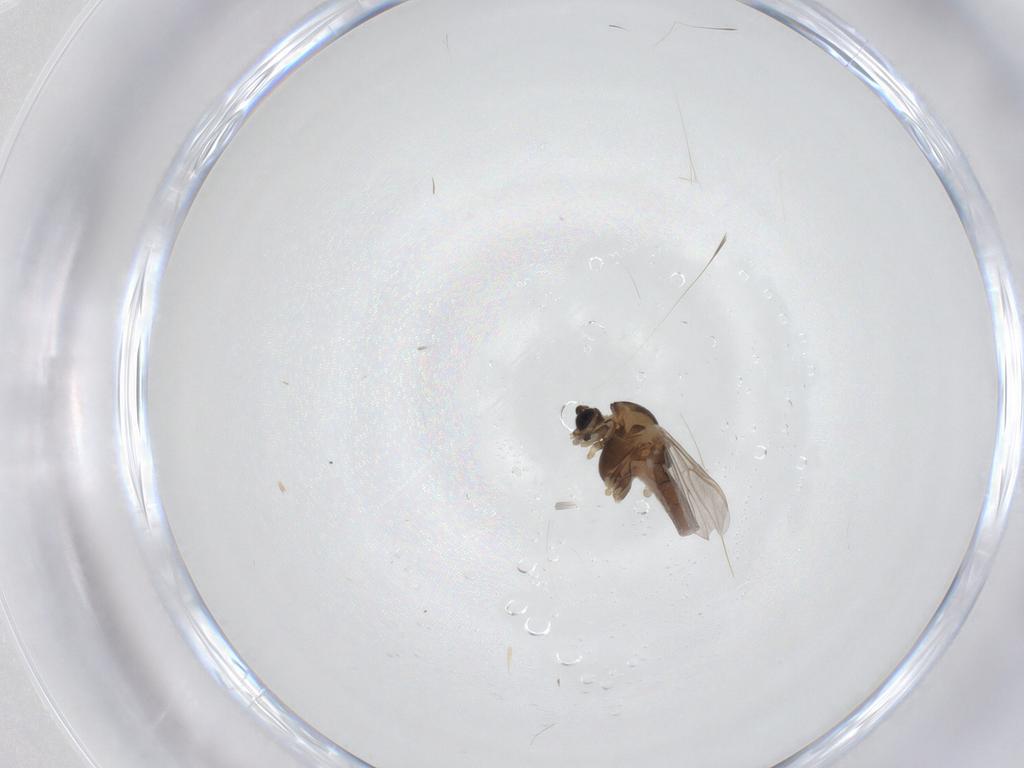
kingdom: Animalia
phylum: Arthropoda
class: Insecta
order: Diptera
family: Chironomidae
